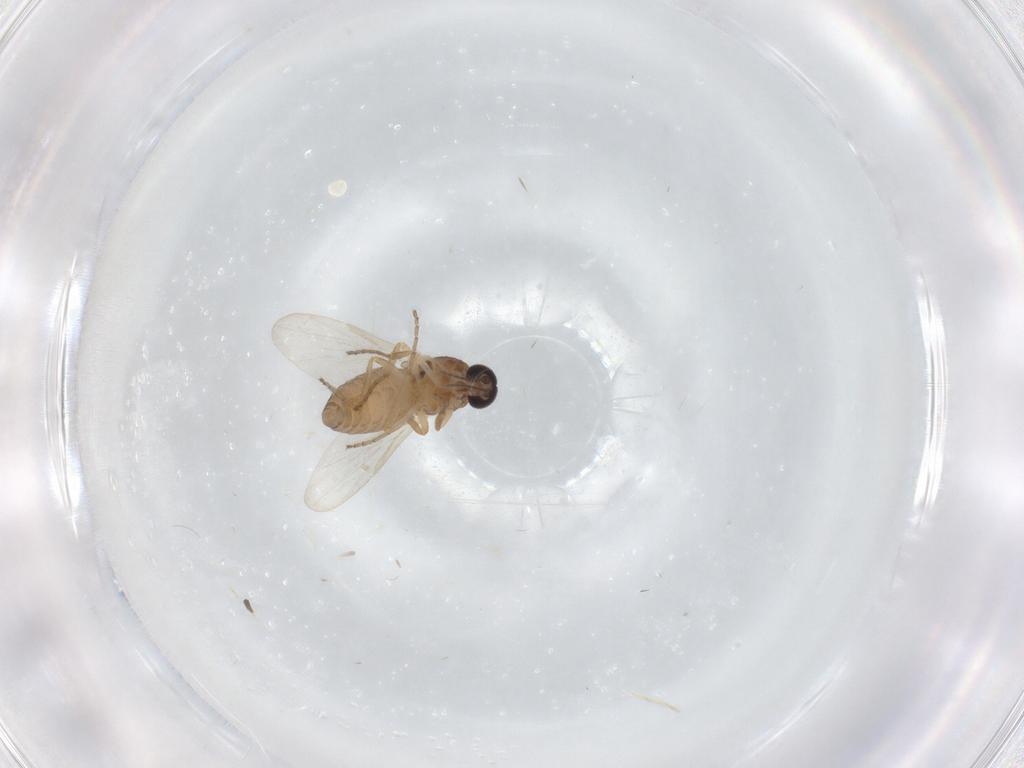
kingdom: Animalia
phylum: Arthropoda
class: Insecta
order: Diptera
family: Ceratopogonidae
